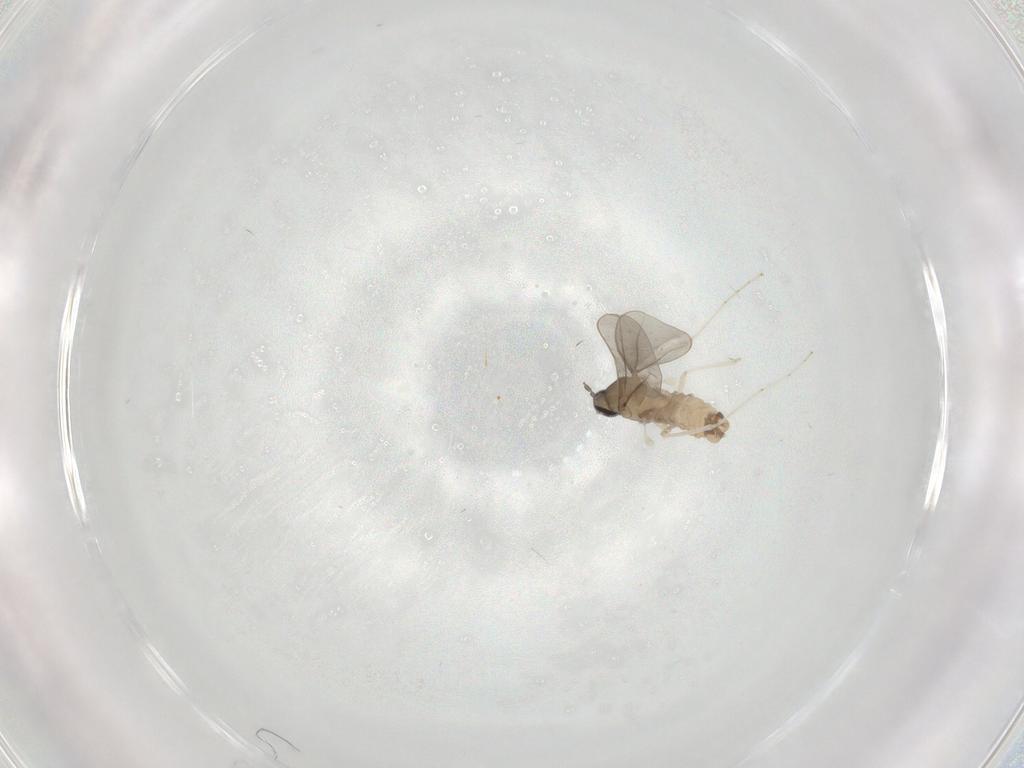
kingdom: Animalia
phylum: Arthropoda
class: Insecta
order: Diptera
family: Cecidomyiidae
